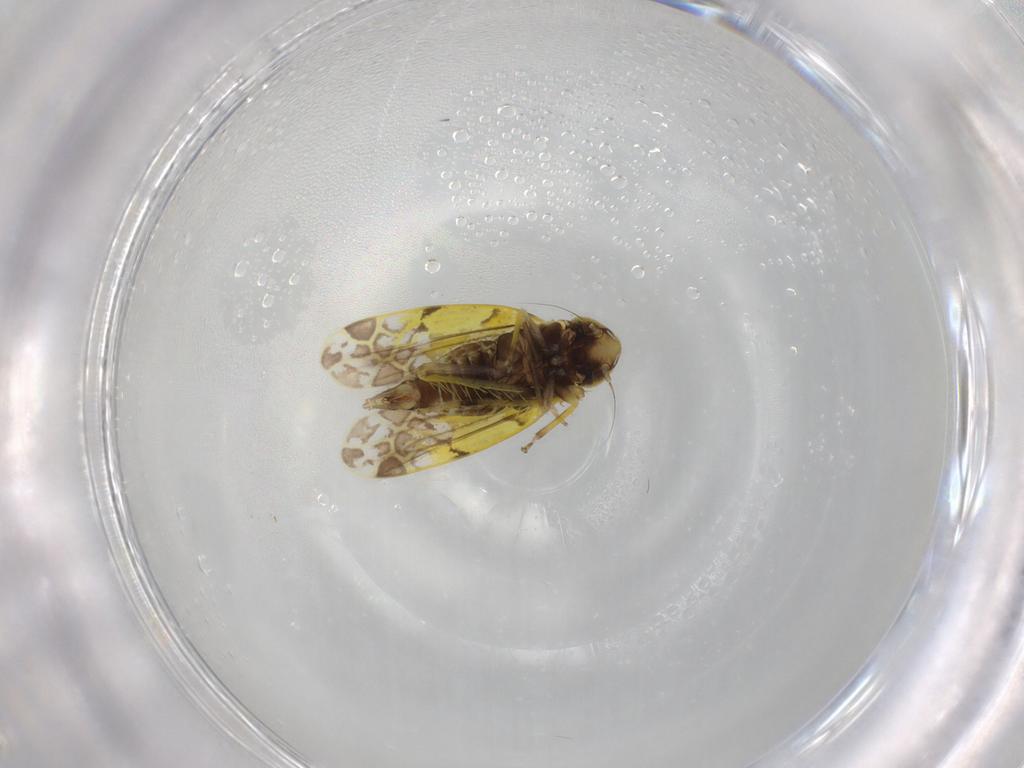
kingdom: Animalia
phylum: Arthropoda
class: Insecta
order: Hemiptera
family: Cicadellidae
